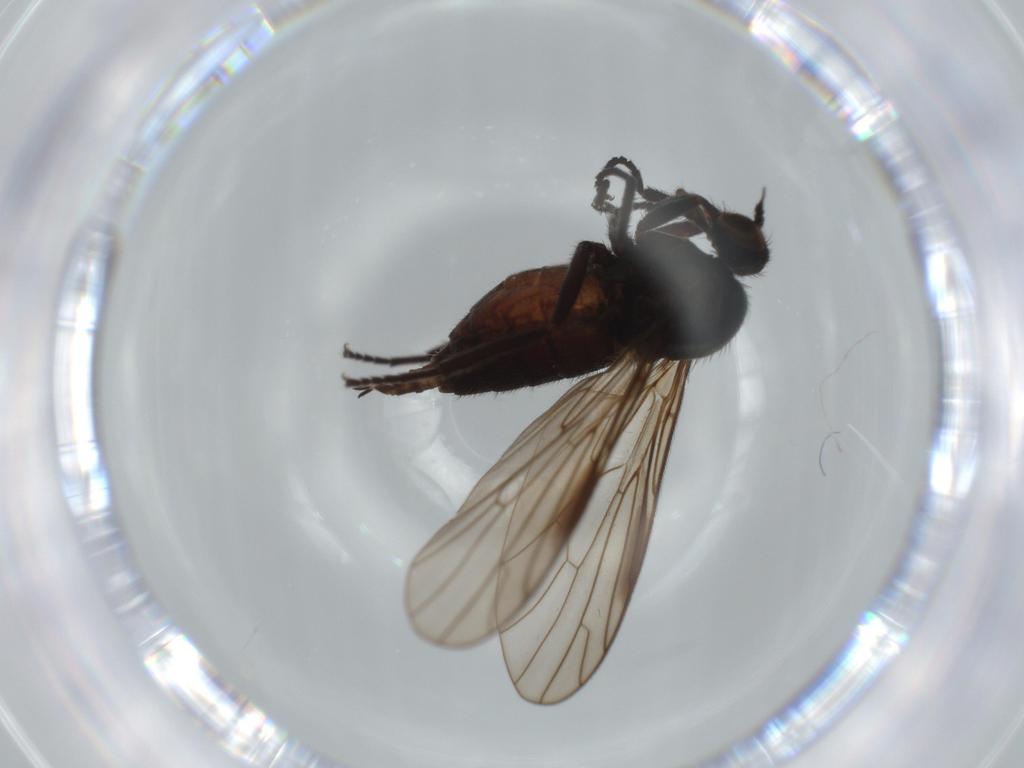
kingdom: Animalia
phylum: Arthropoda
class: Insecta
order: Diptera
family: Empididae
